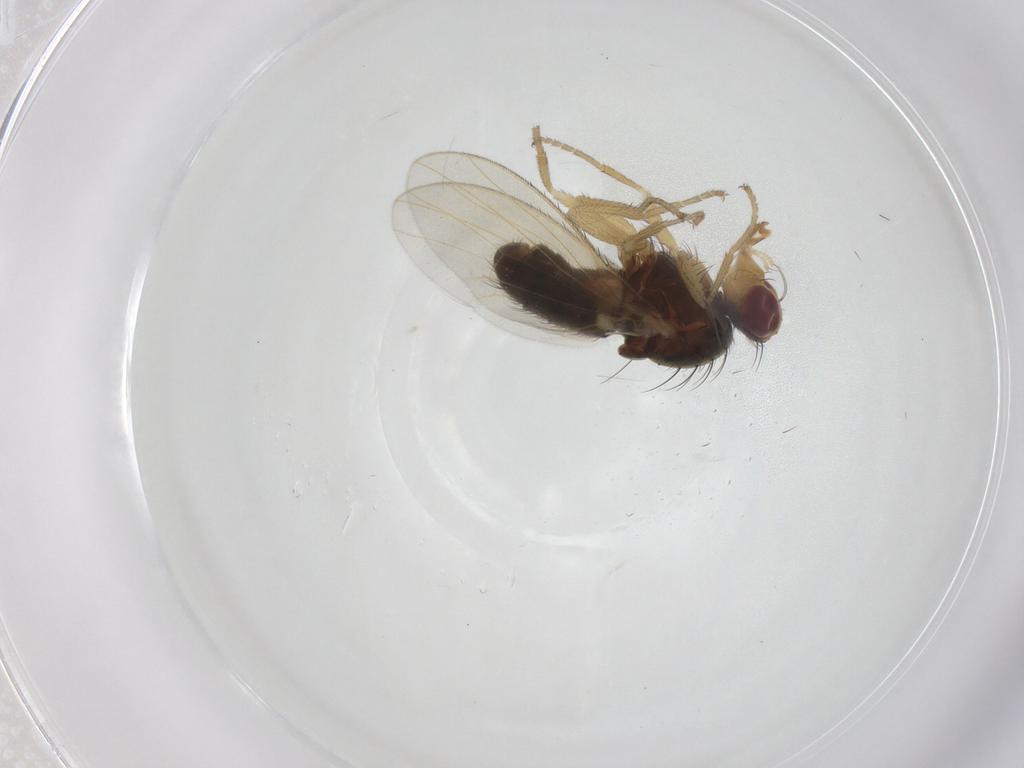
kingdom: Animalia
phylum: Arthropoda
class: Insecta
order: Diptera
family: Heleomyzidae
